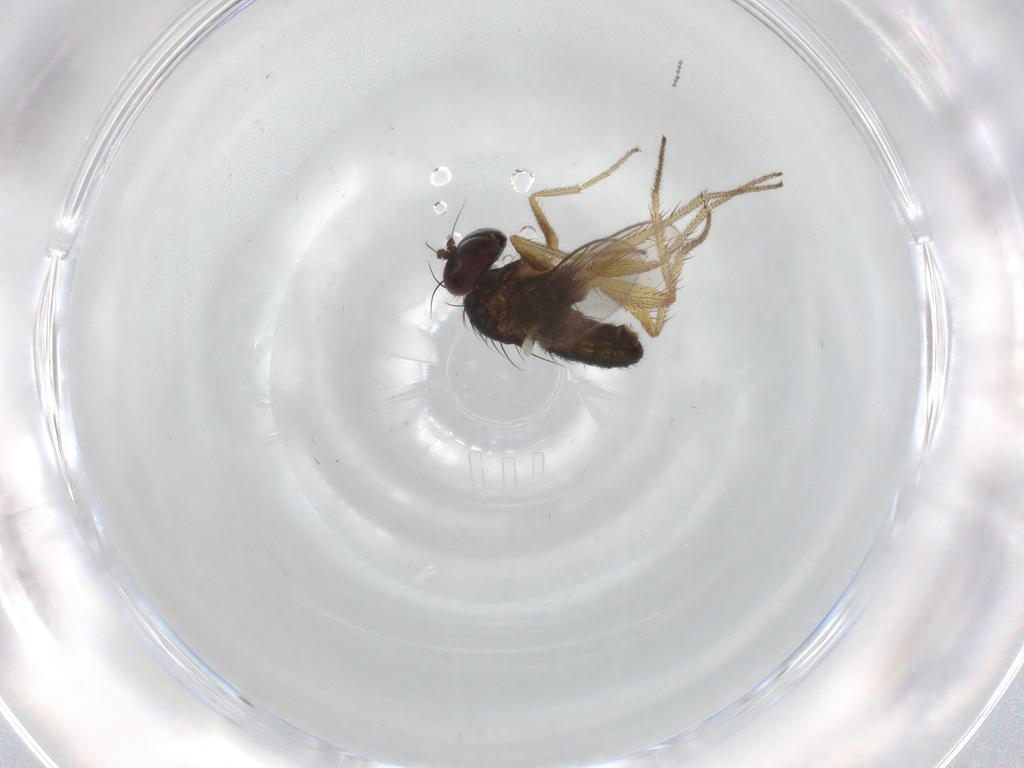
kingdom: Animalia
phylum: Arthropoda
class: Insecta
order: Diptera
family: Dolichopodidae
